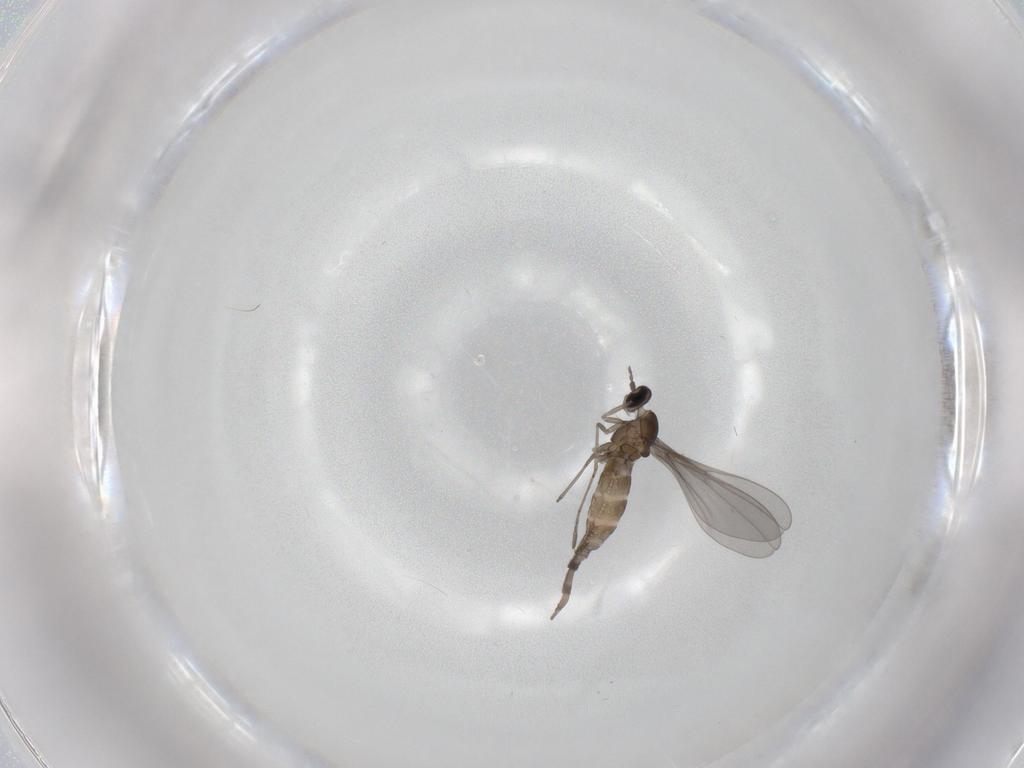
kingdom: Animalia
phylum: Arthropoda
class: Insecta
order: Diptera
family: Cecidomyiidae
